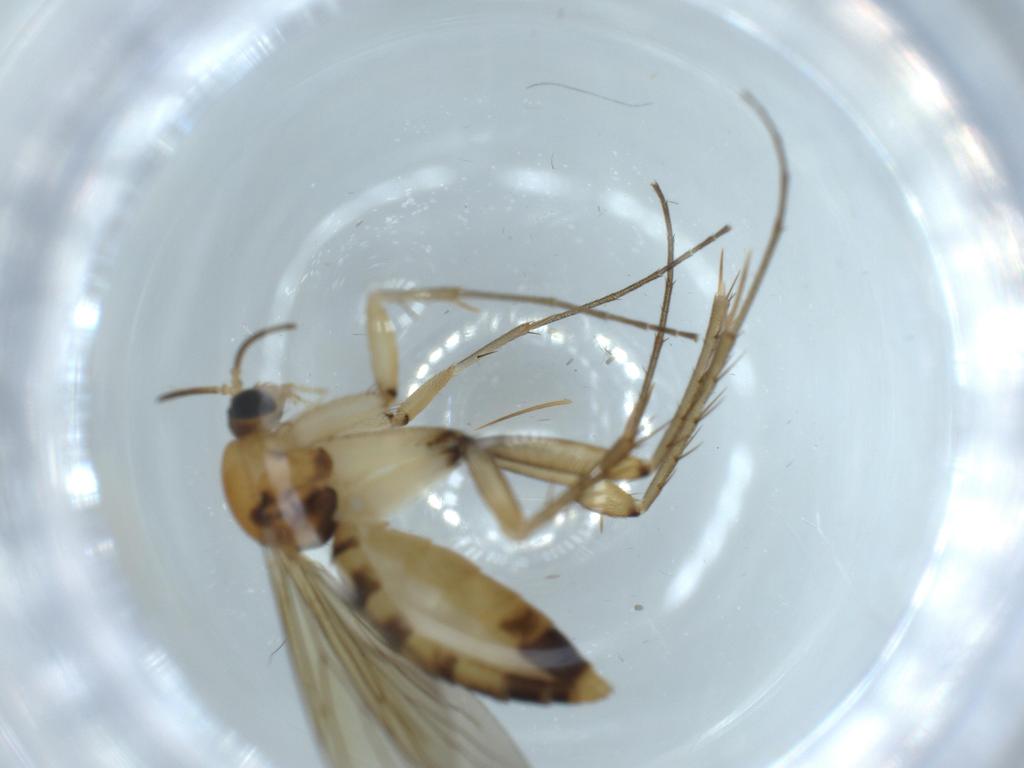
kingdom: Animalia
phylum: Arthropoda
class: Insecta
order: Diptera
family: Mycetophilidae
